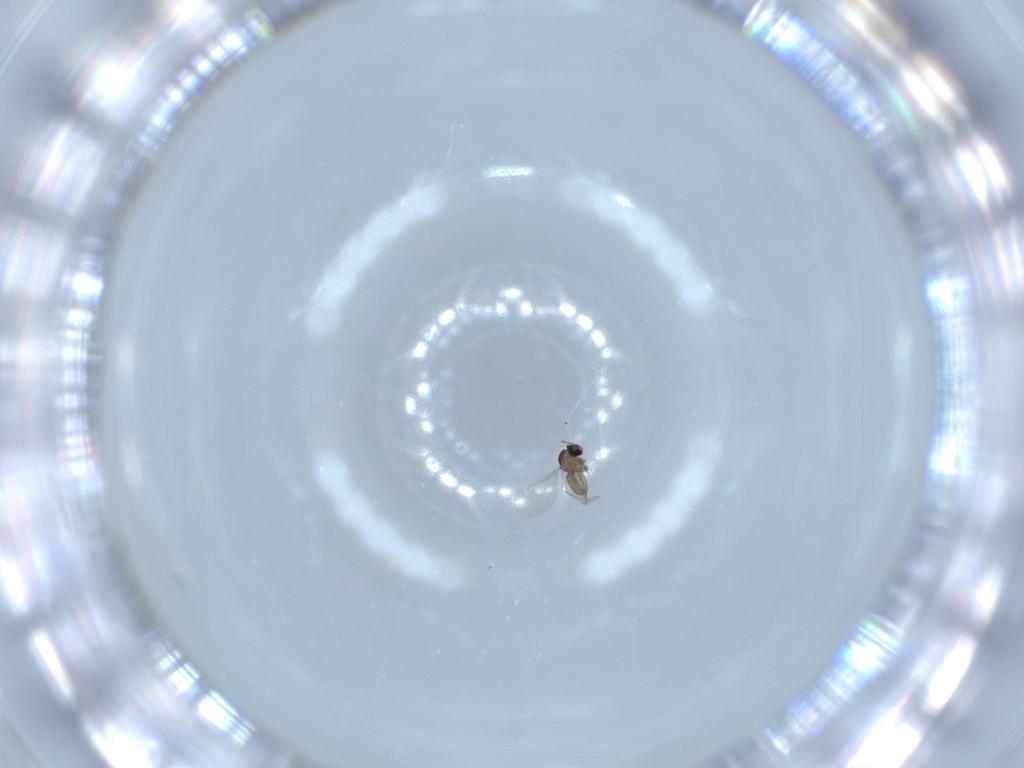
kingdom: Animalia
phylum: Arthropoda
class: Insecta
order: Diptera
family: Cecidomyiidae
